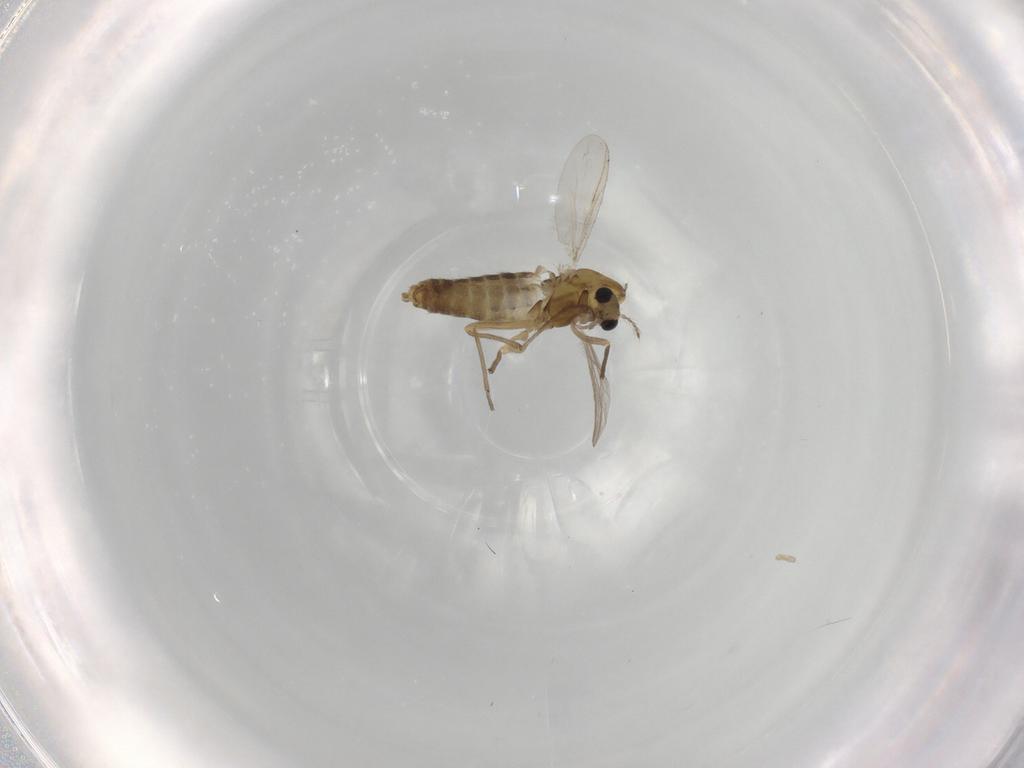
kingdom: Animalia
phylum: Arthropoda
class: Insecta
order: Diptera
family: Chironomidae
